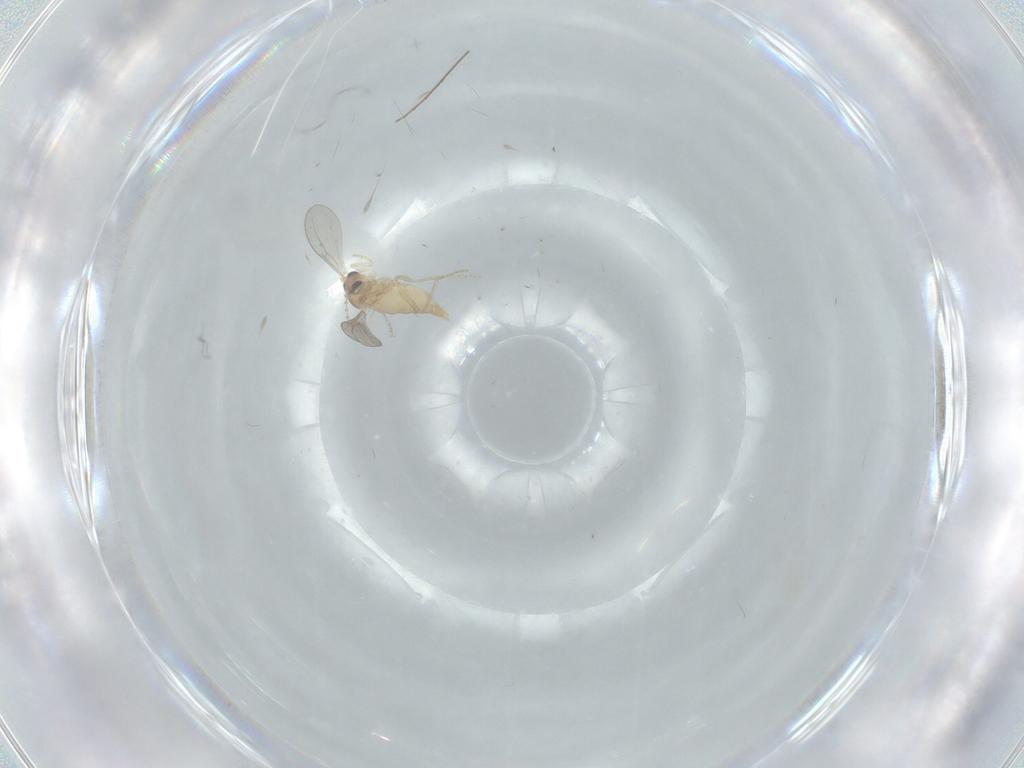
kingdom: Animalia
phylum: Arthropoda
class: Insecta
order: Diptera
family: Cecidomyiidae
